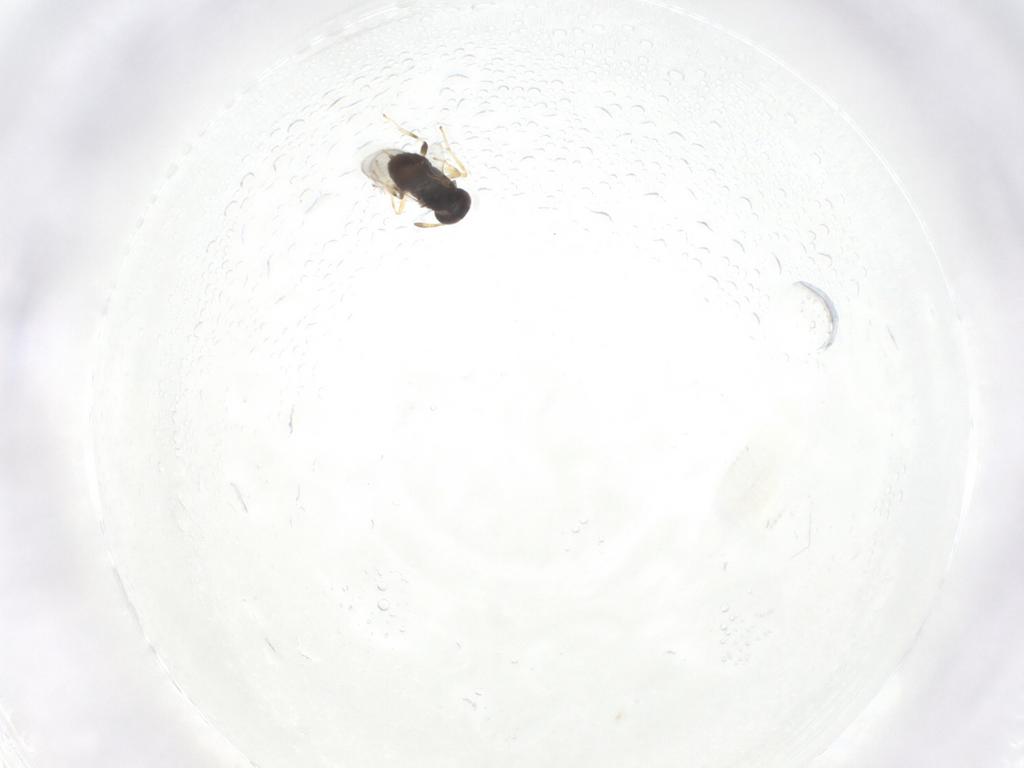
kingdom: Animalia
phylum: Arthropoda
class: Insecta
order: Hymenoptera
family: Encyrtidae
